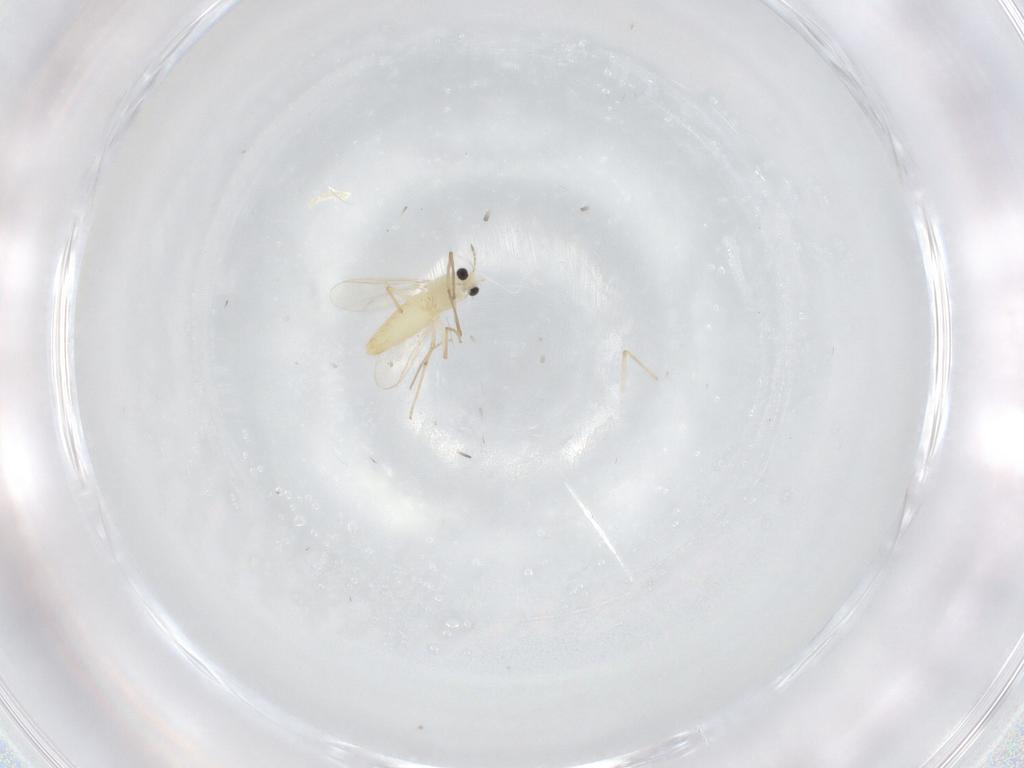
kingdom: Animalia
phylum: Arthropoda
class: Insecta
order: Diptera
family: Chironomidae
